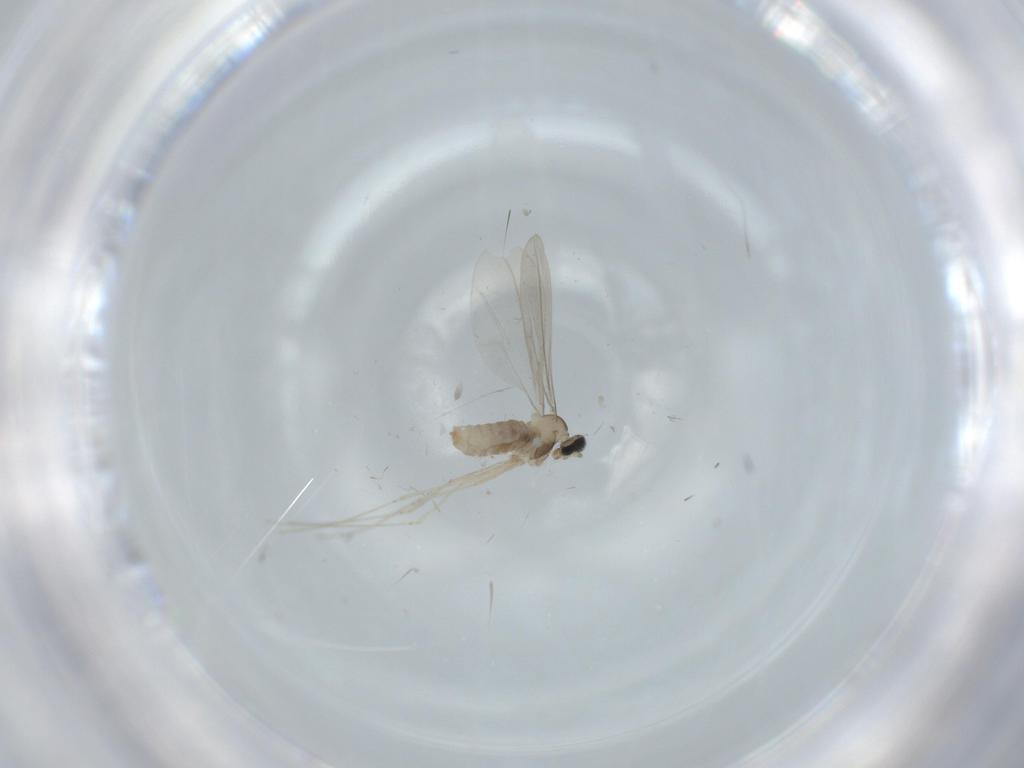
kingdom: Animalia
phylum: Arthropoda
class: Insecta
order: Diptera
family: Cecidomyiidae
